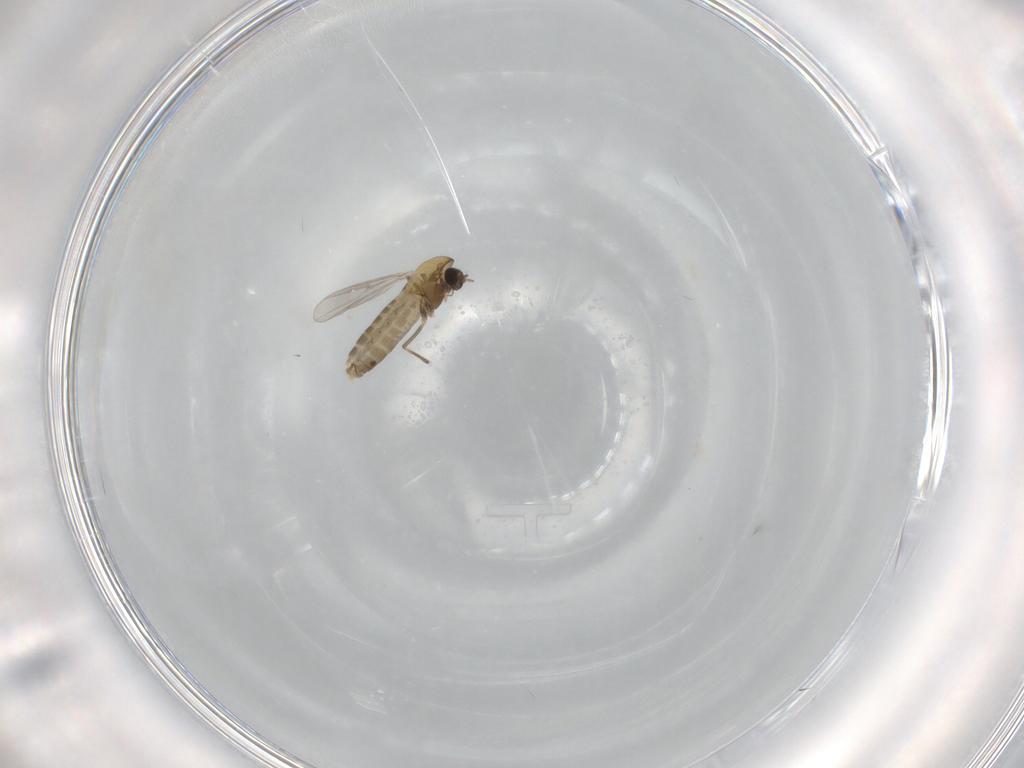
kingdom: Animalia
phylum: Arthropoda
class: Insecta
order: Diptera
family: Chironomidae
